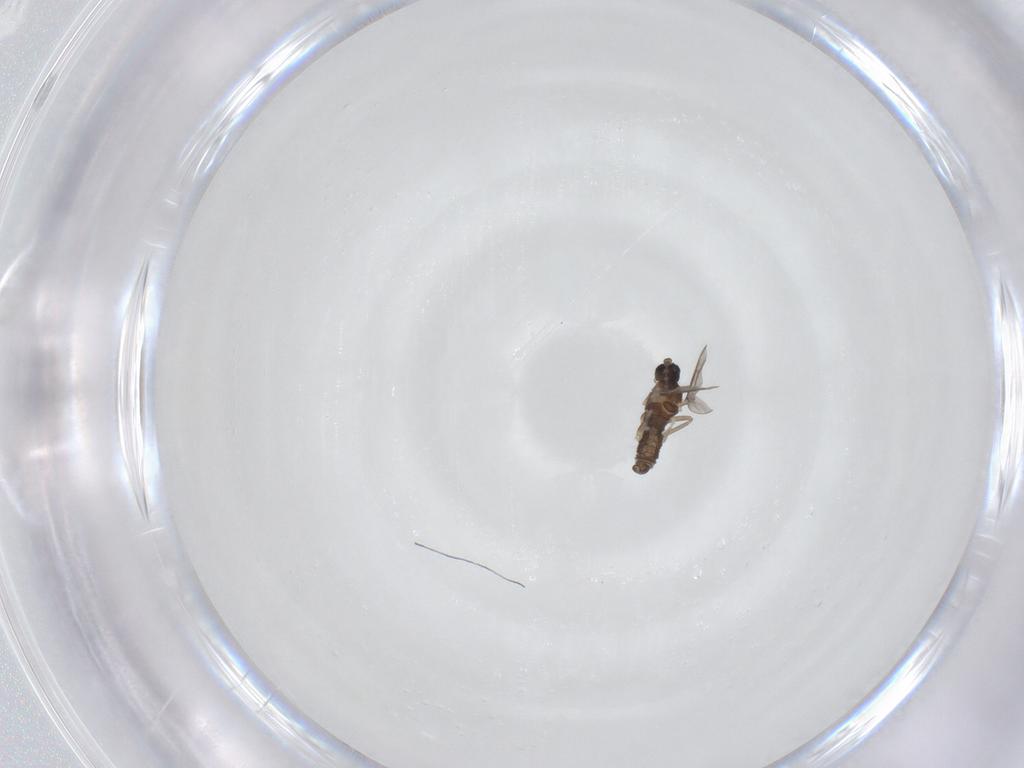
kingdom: Animalia
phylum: Arthropoda
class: Insecta
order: Diptera
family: Cecidomyiidae
